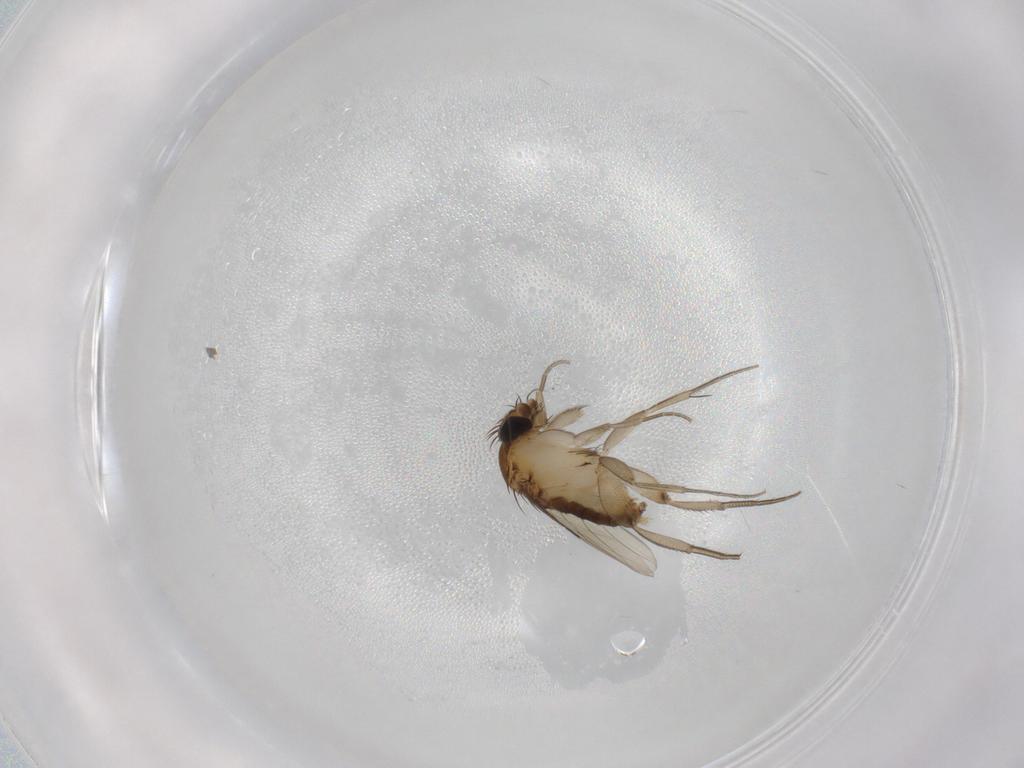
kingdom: Animalia
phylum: Arthropoda
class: Insecta
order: Diptera
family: Phoridae
